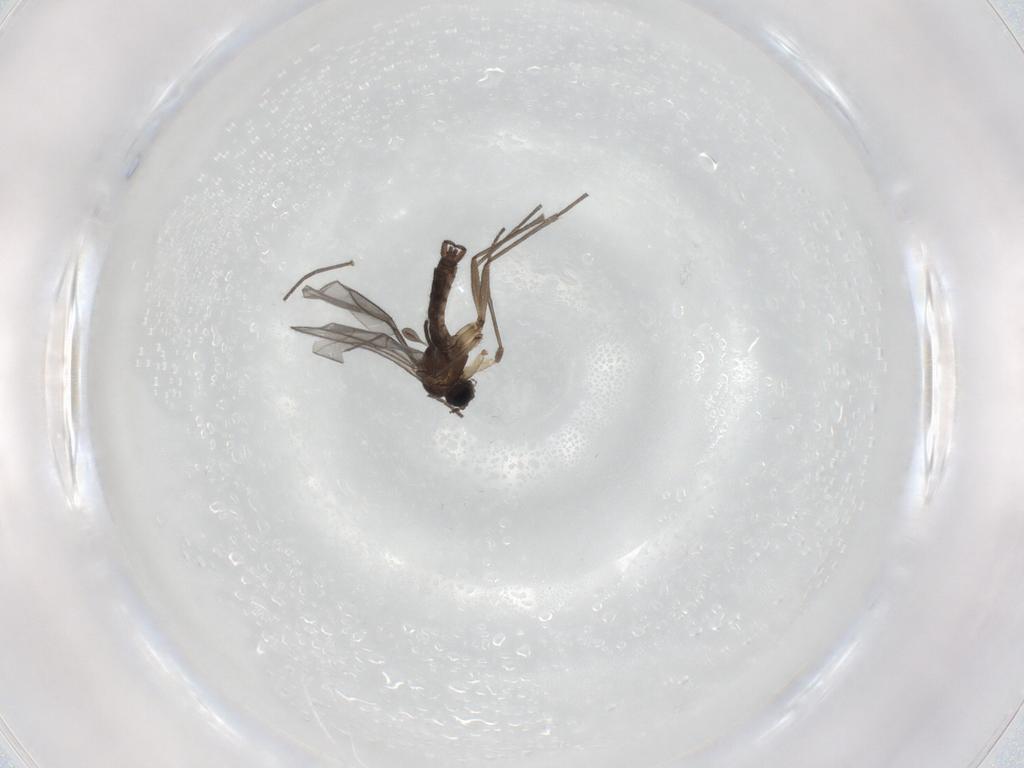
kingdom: Animalia
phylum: Arthropoda
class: Insecta
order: Diptera
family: Sciaridae
